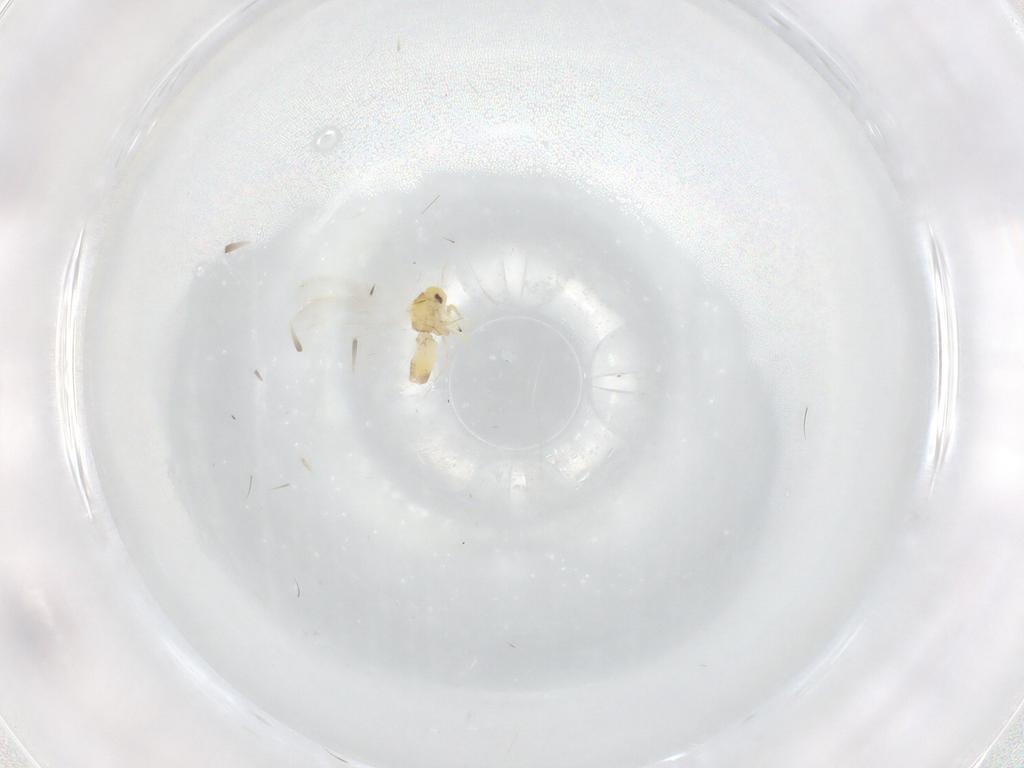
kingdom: Animalia
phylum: Arthropoda
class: Insecta
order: Hemiptera
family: Aleyrodidae
